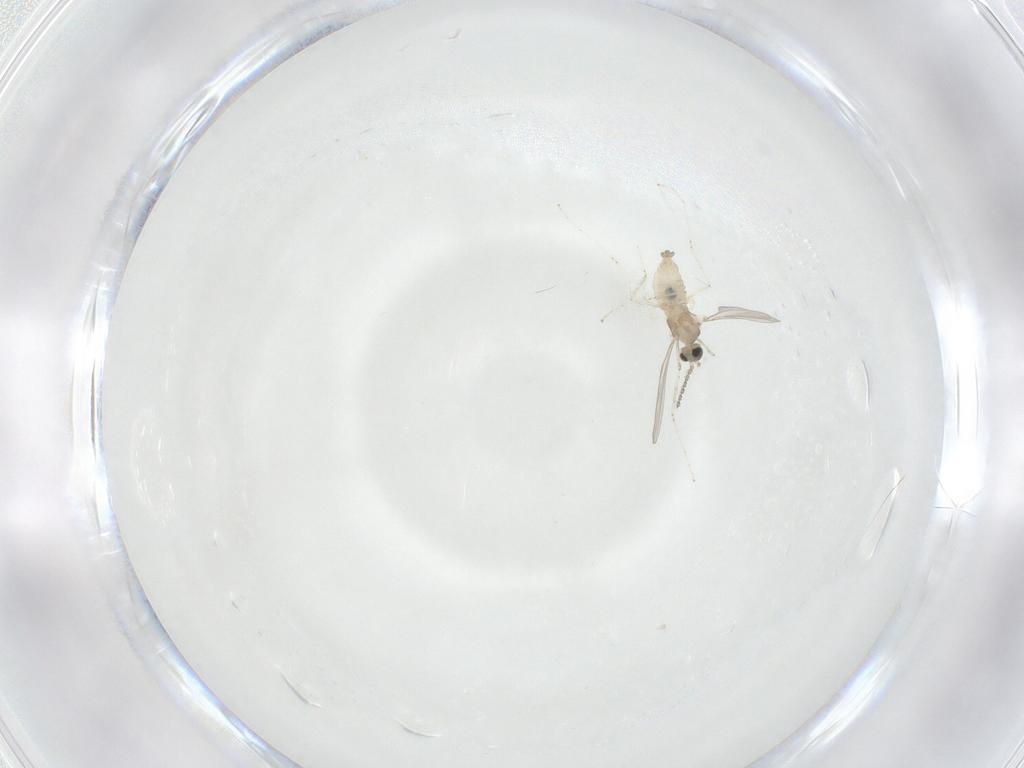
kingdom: Animalia
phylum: Arthropoda
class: Insecta
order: Diptera
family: Cecidomyiidae
